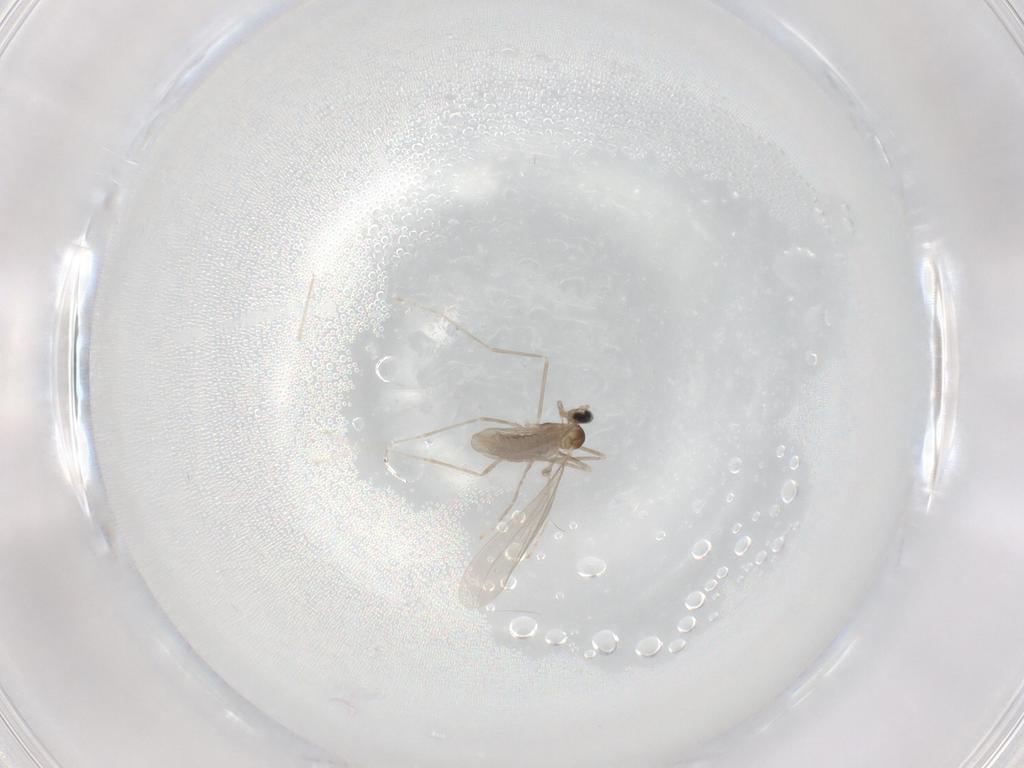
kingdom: Animalia
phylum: Arthropoda
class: Insecta
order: Diptera
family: Cecidomyiidae
